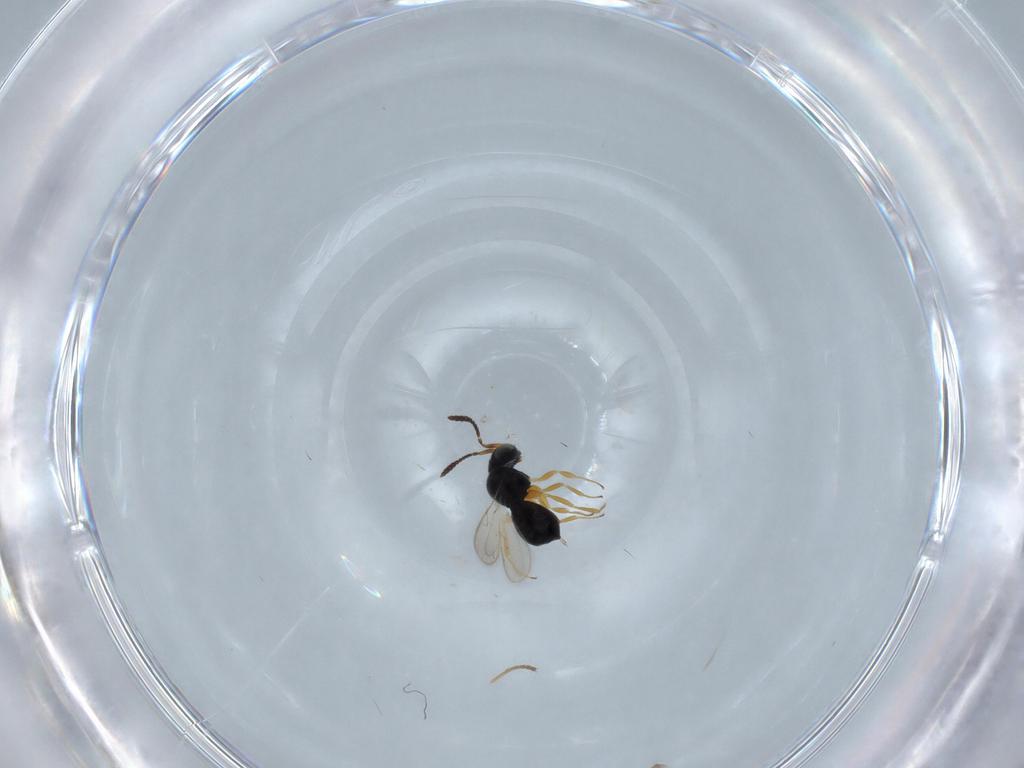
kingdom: Animalia
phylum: Arthropoda
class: Insecta
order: Hymenoptera
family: Scelionidae
